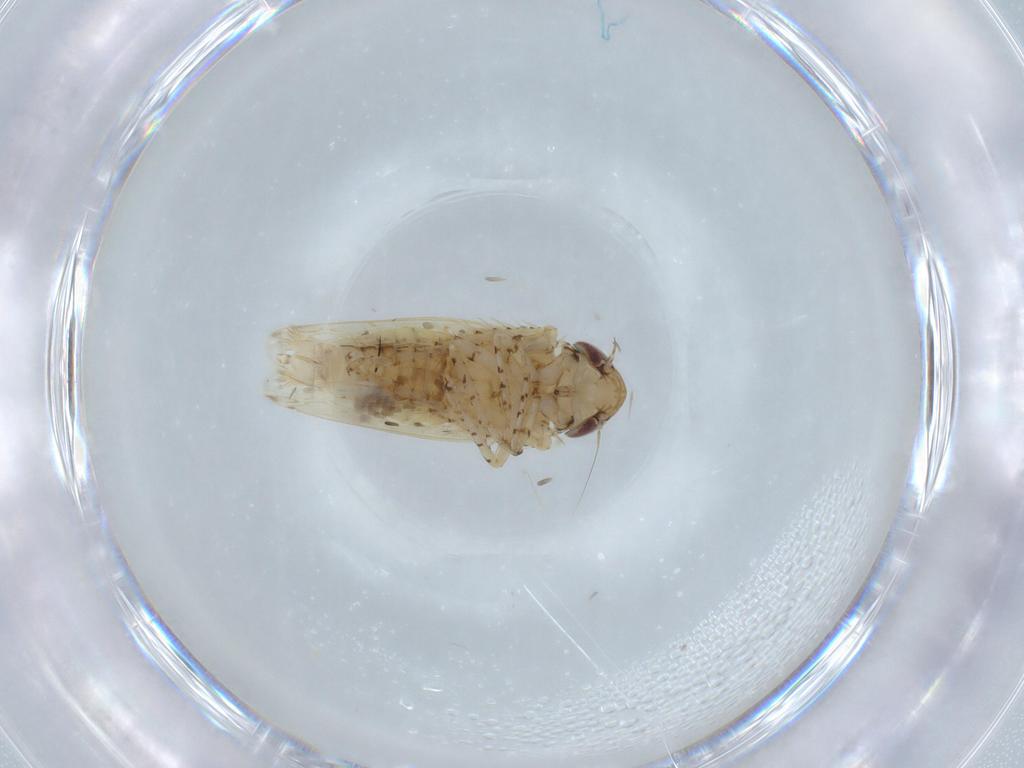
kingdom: Animalia
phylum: Arthropoda
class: Insecta
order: Hemiptera
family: Cicadellidae
